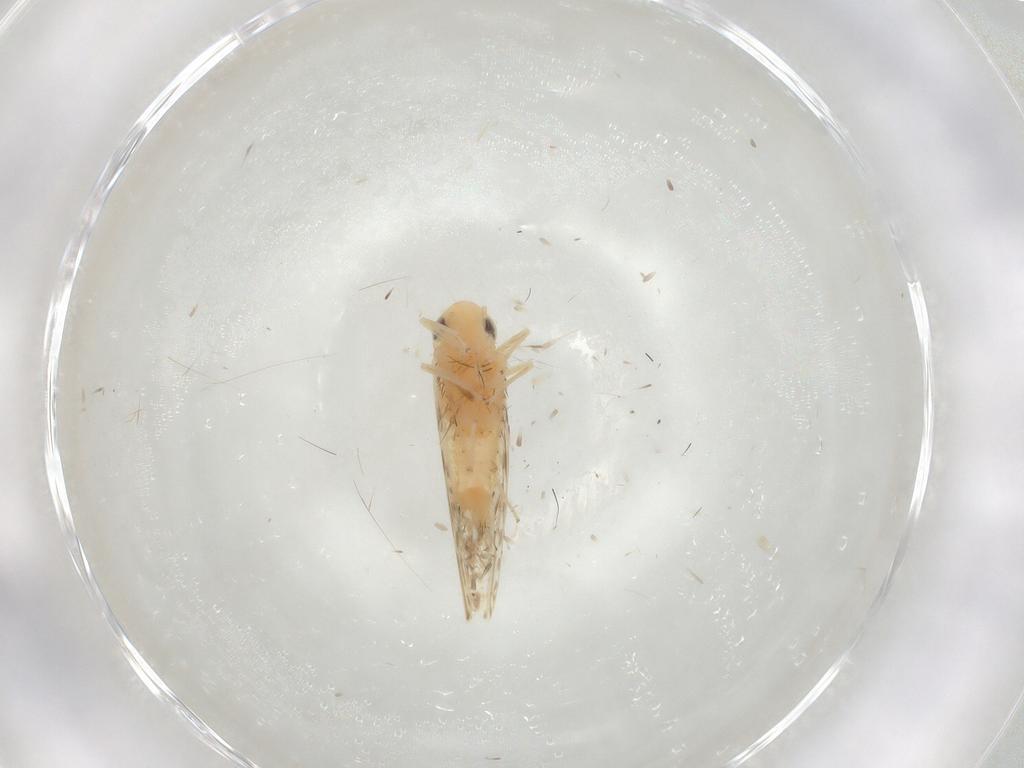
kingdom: Animalia
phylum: Arthropoda
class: Insecta
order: Hemiptera
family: Cicadellidae
